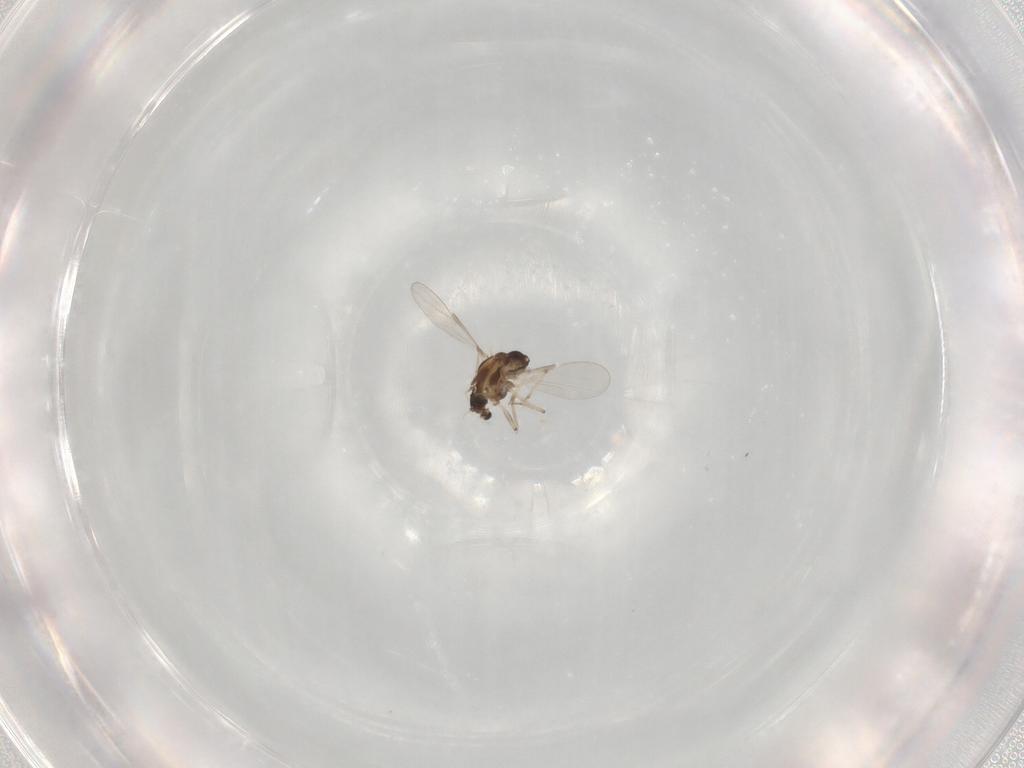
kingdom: Animalia
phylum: Arthropoda
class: Insecta
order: Diptera
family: Chironomidae
